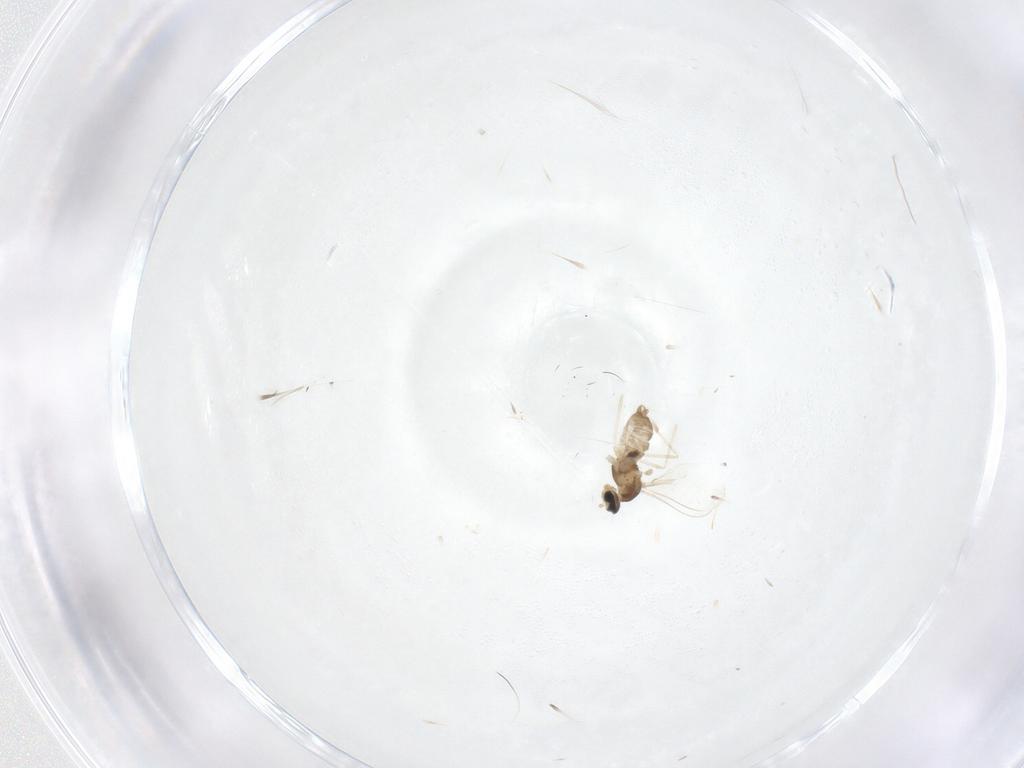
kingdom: Animalia
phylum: Arthropoda
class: Insecta
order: Diptera
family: Cecidomyiidae
